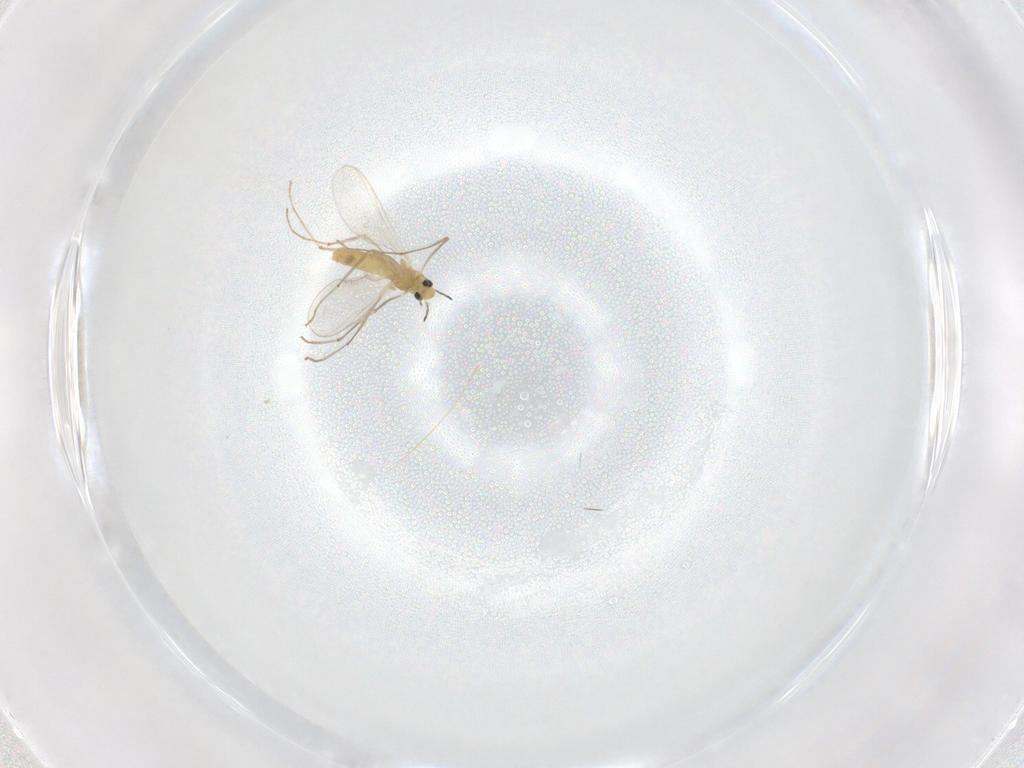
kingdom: Animalia
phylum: Arthropoda
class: Insecta
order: Diptera
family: Chironomidae
